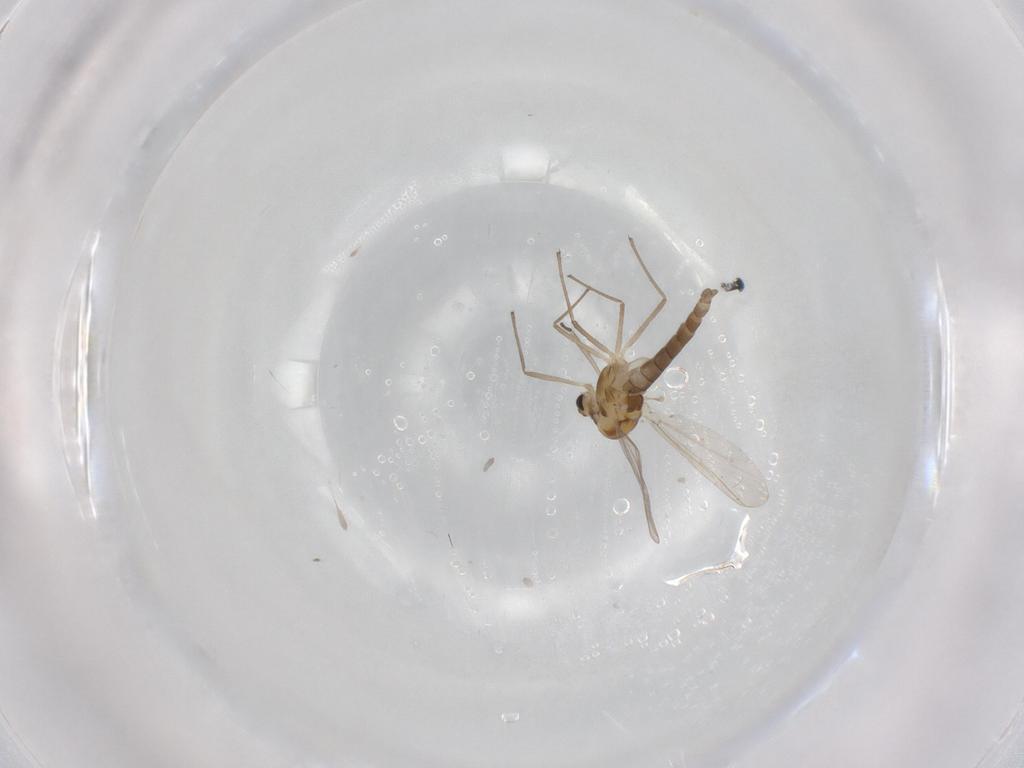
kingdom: Animalia
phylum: Arthropoda
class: Insecta
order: Diptera
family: Chironomidae
